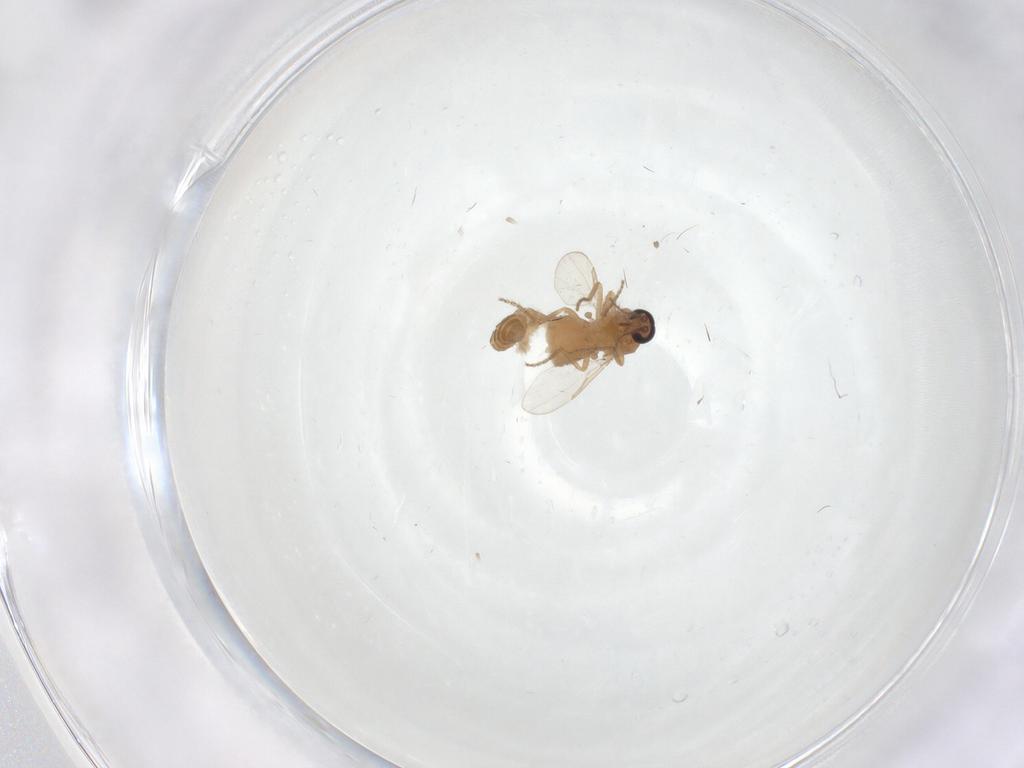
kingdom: Animalia
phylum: Arthropoda
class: Insecta
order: Diptera
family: Ceratopogonidae
